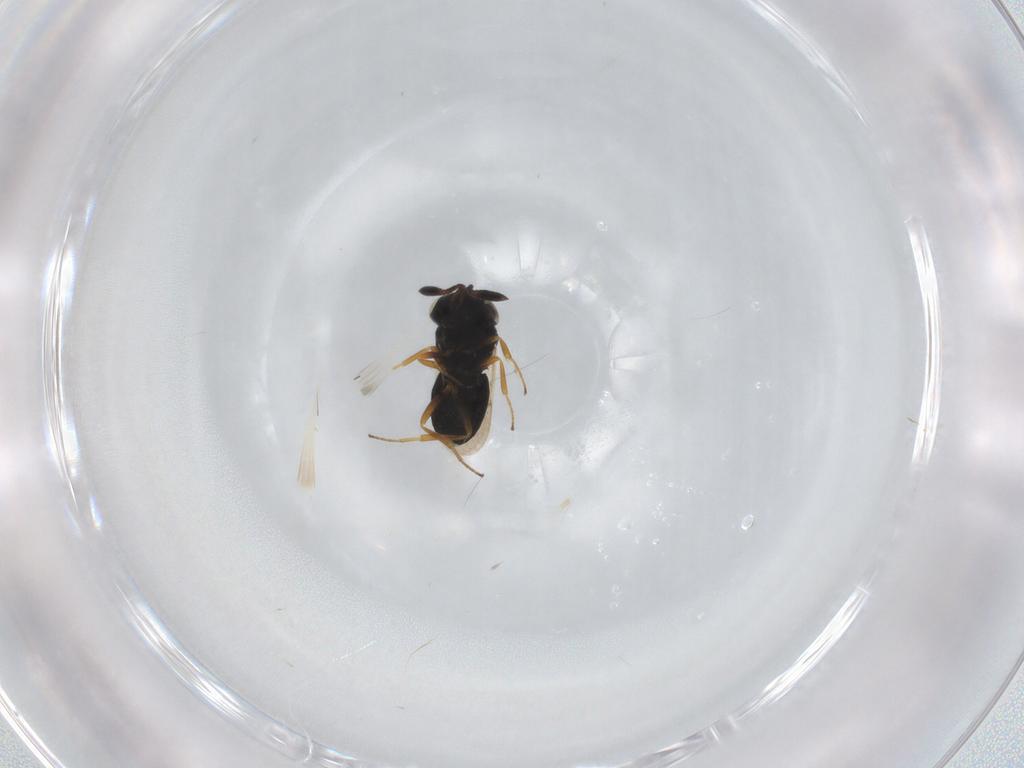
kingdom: Animalia
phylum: Arthropoda
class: Insecta
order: Hymenoptera
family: Scelionidae
